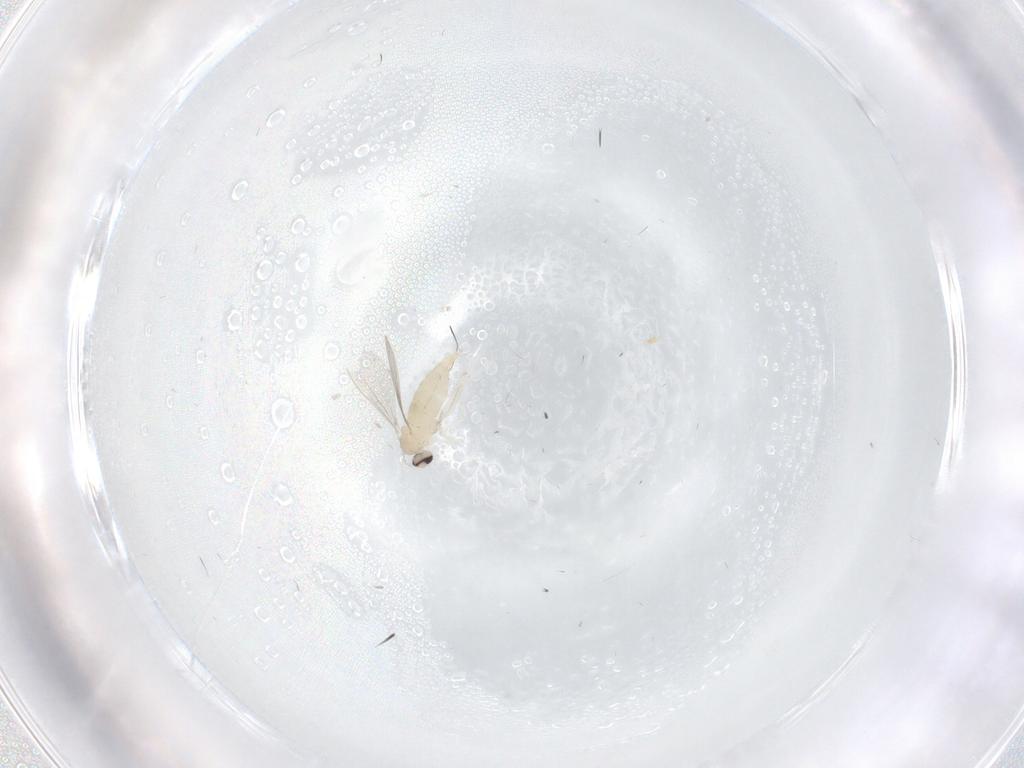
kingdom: Animalia
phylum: Arthropoda
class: Insecta
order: Diptera
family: Cecidomyiidae
